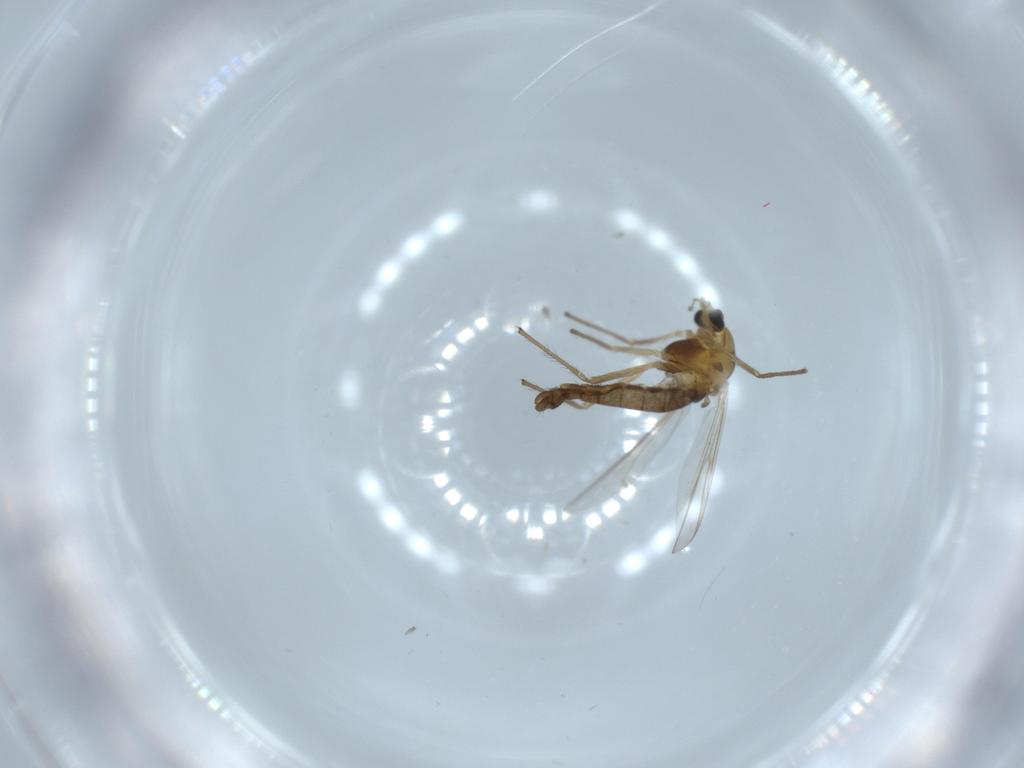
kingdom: Animalia
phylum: Arthropoda
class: Insecta
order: Diptera
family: Chironomidae
